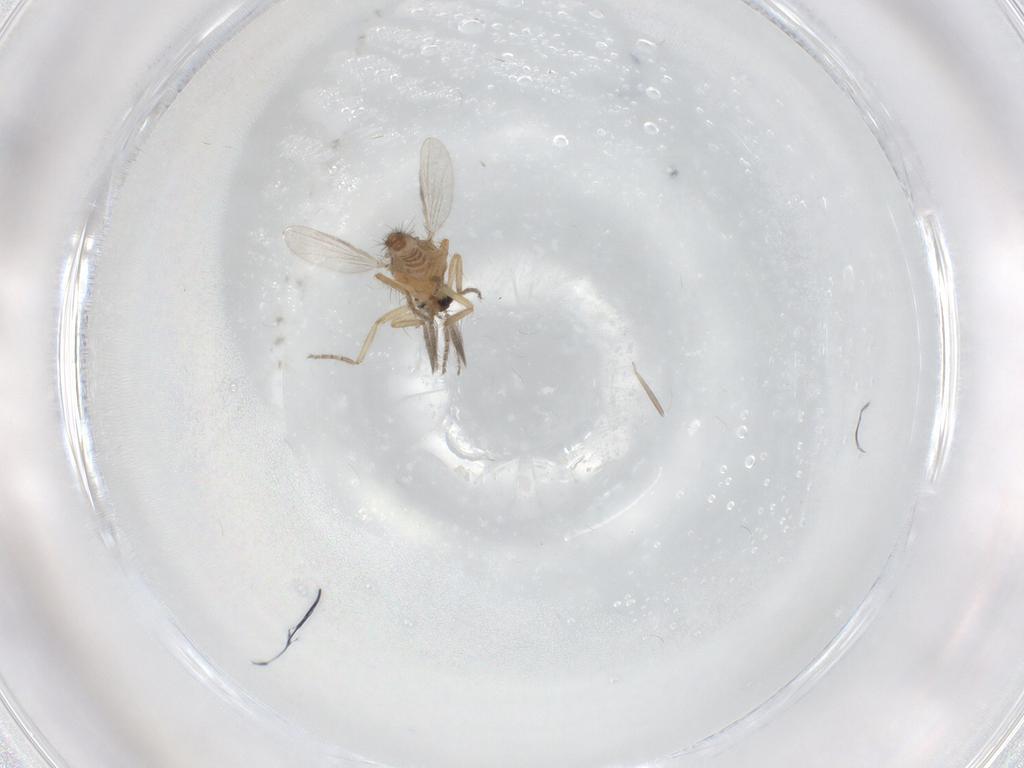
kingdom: Animalia
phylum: Arthropoda
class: Insecta
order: Diptera
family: Ceratopogonidae
